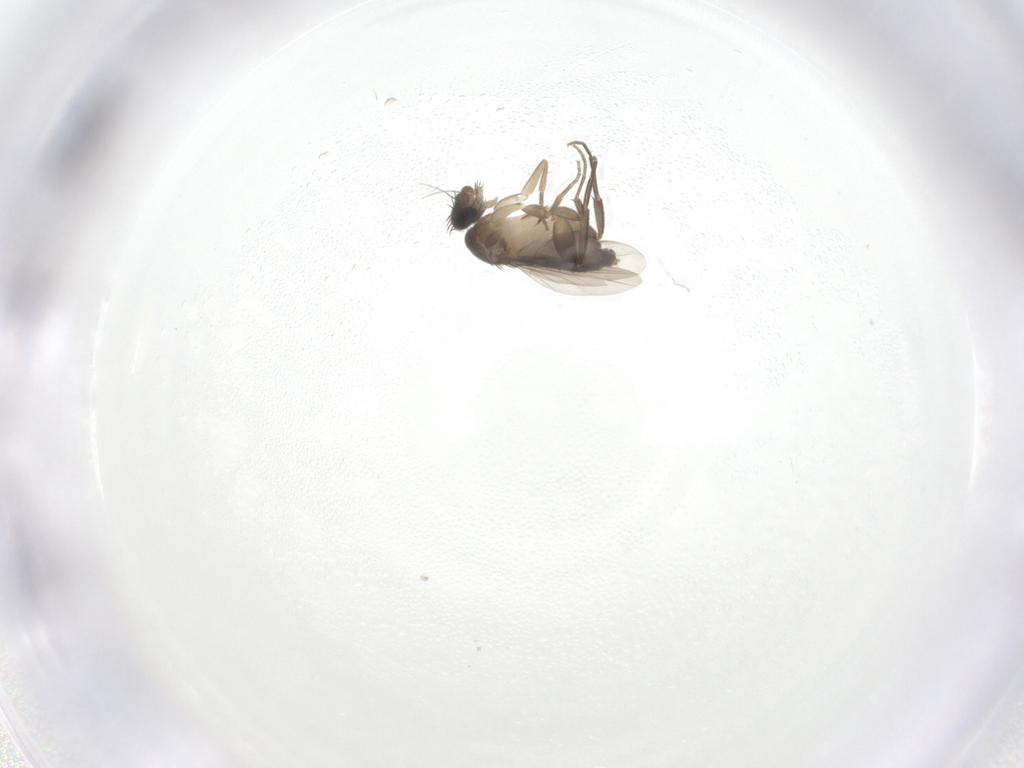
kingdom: Animalia
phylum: Arthropoda
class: Insecta
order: Diptera
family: Phoridae
